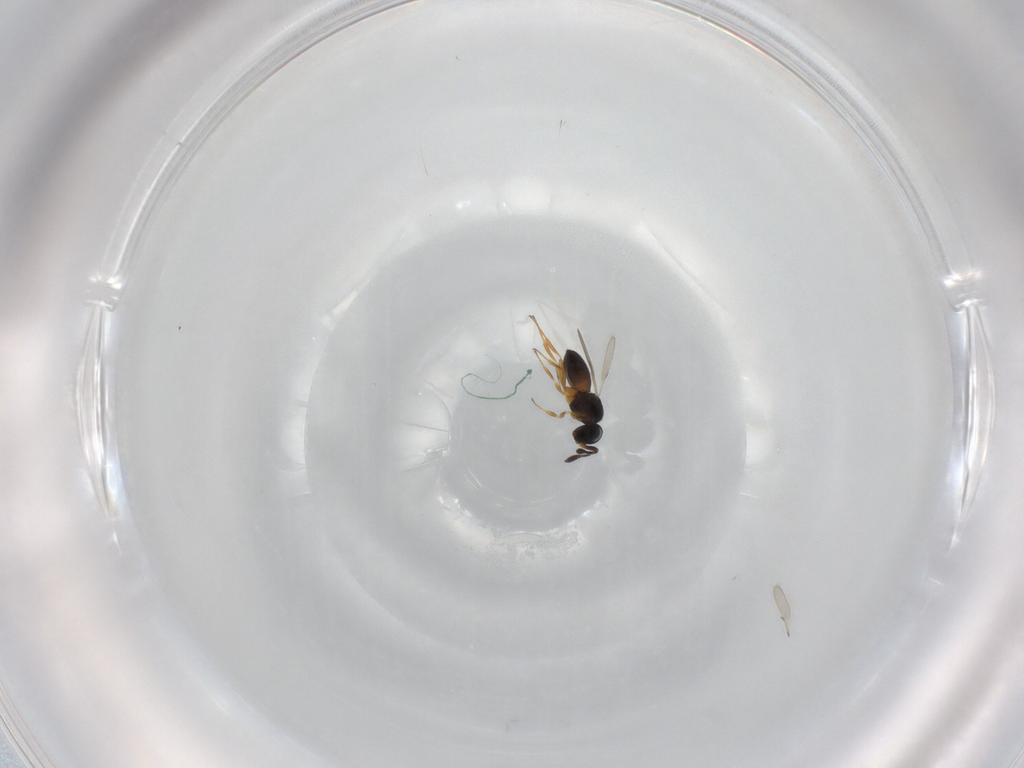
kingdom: Animalia
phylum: Arthropoda
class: Insecta
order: Hymenoptera
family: Scelionidae
